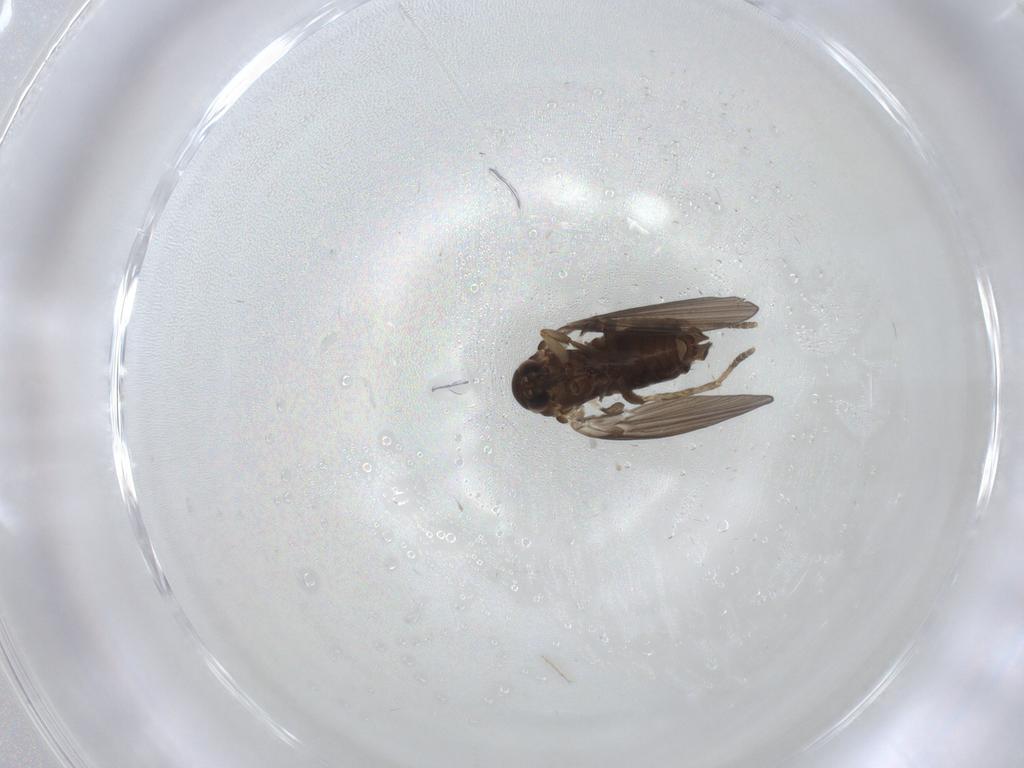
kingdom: Animalia
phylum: Arthropoda
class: Insecta
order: Diptera
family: Psychodidae
